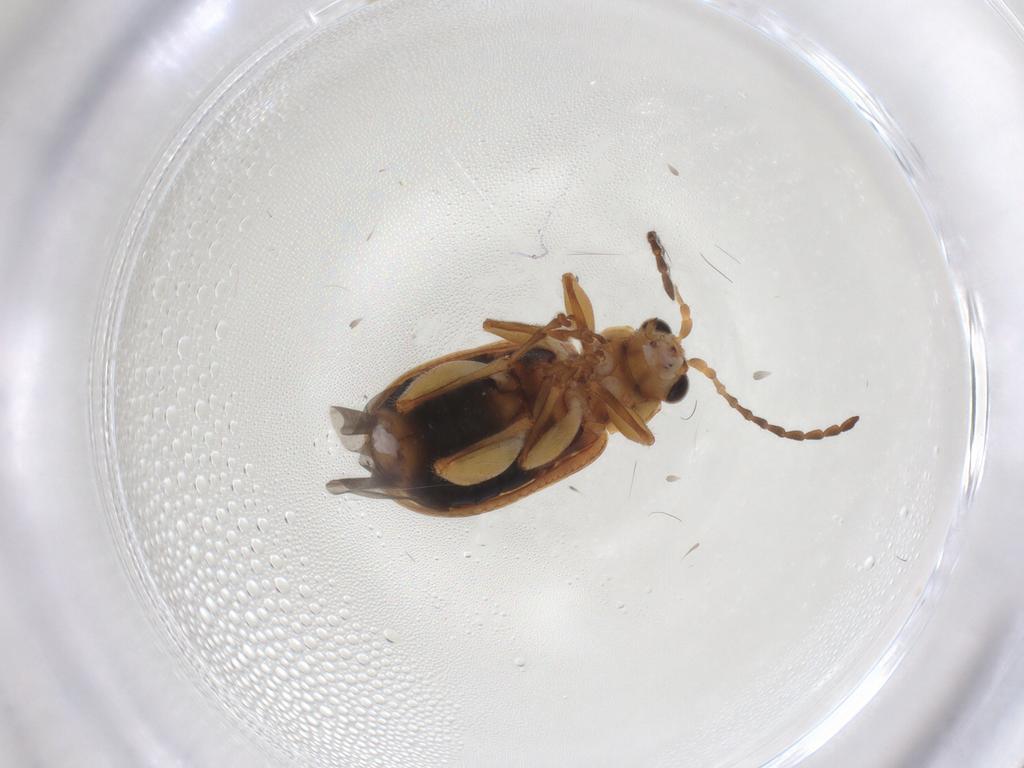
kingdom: Animalia
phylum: Arthropoda
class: Insecta
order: Coleoptera
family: Chrysomelidae
